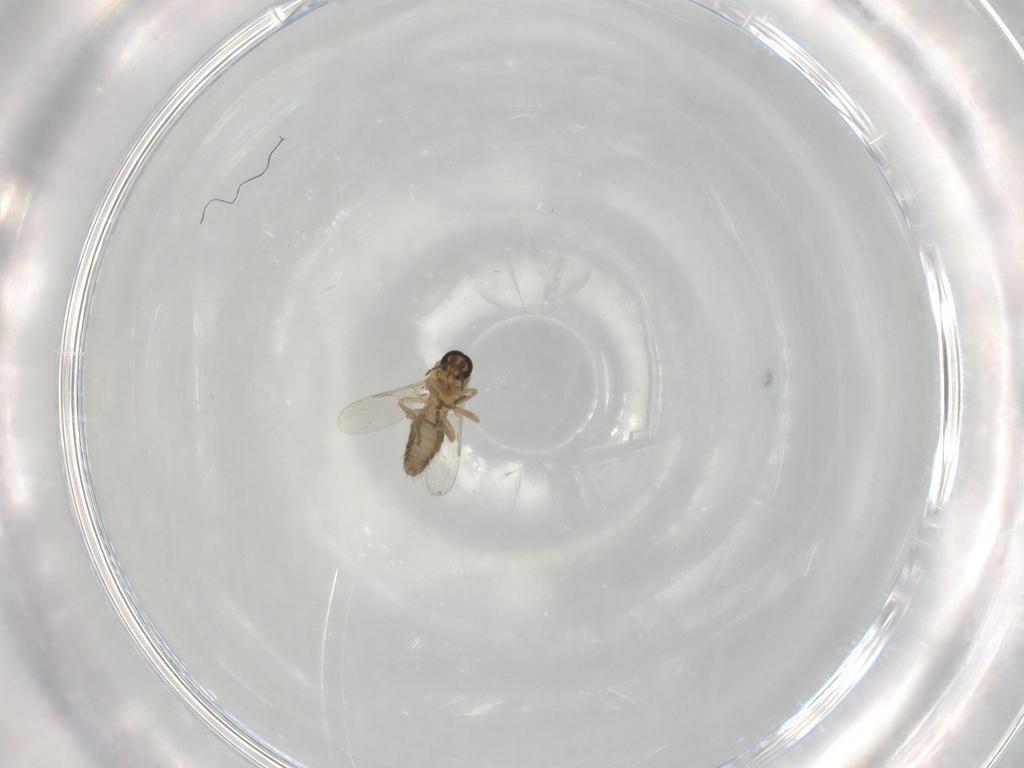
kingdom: Animalia
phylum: Arthropoda
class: Insecta
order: Diptera
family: Ceratopogonidae
